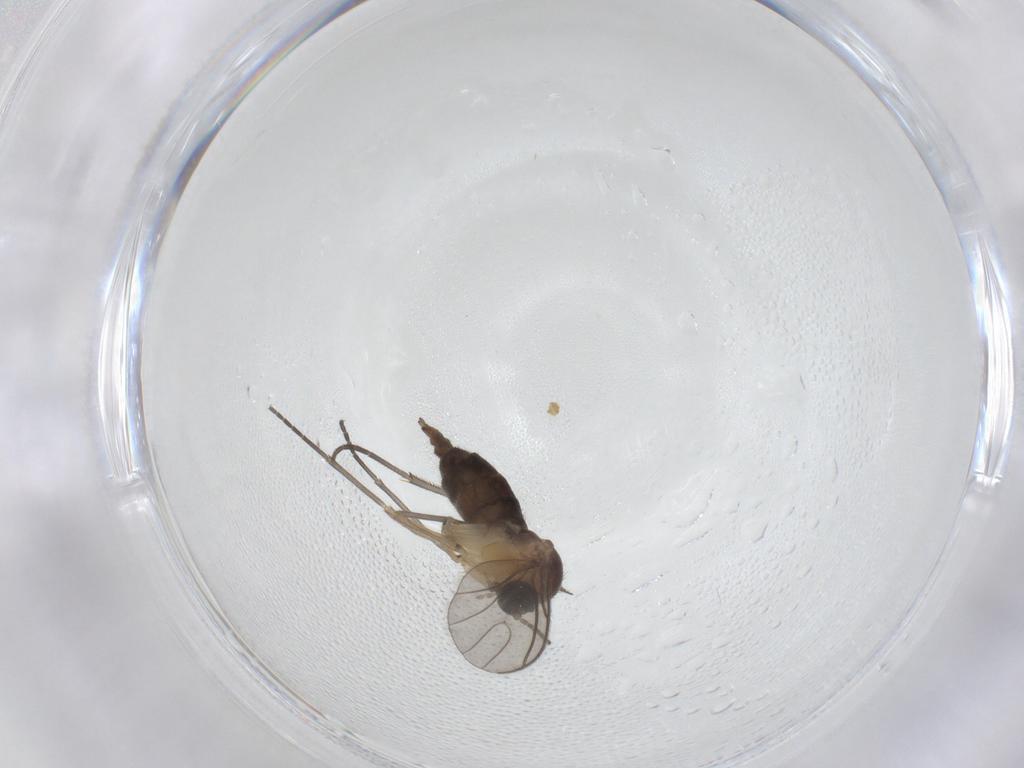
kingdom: Animalia
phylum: Arthropoda
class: Insecta
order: Diptera
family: Sciaridae
